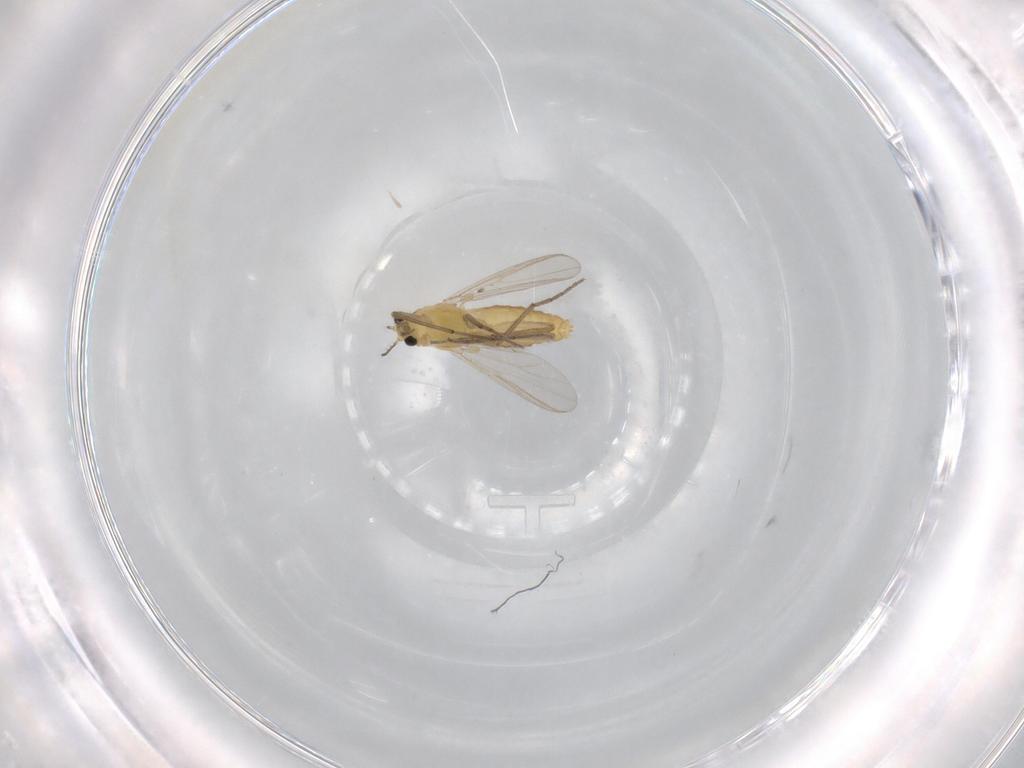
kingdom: Animalia
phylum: Arthropoda
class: Insecta
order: Diptera
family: Chironomidae
